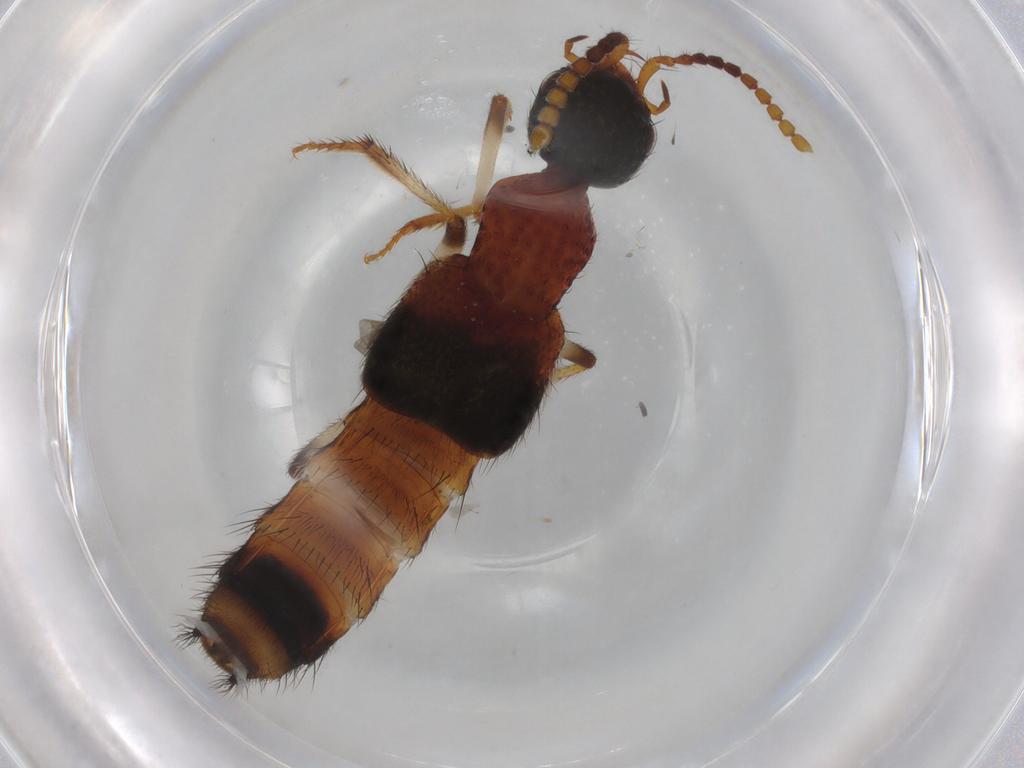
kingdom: Animalia
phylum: Arthropoda
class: Insecta
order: Coleoptera
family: Staphylinidae
